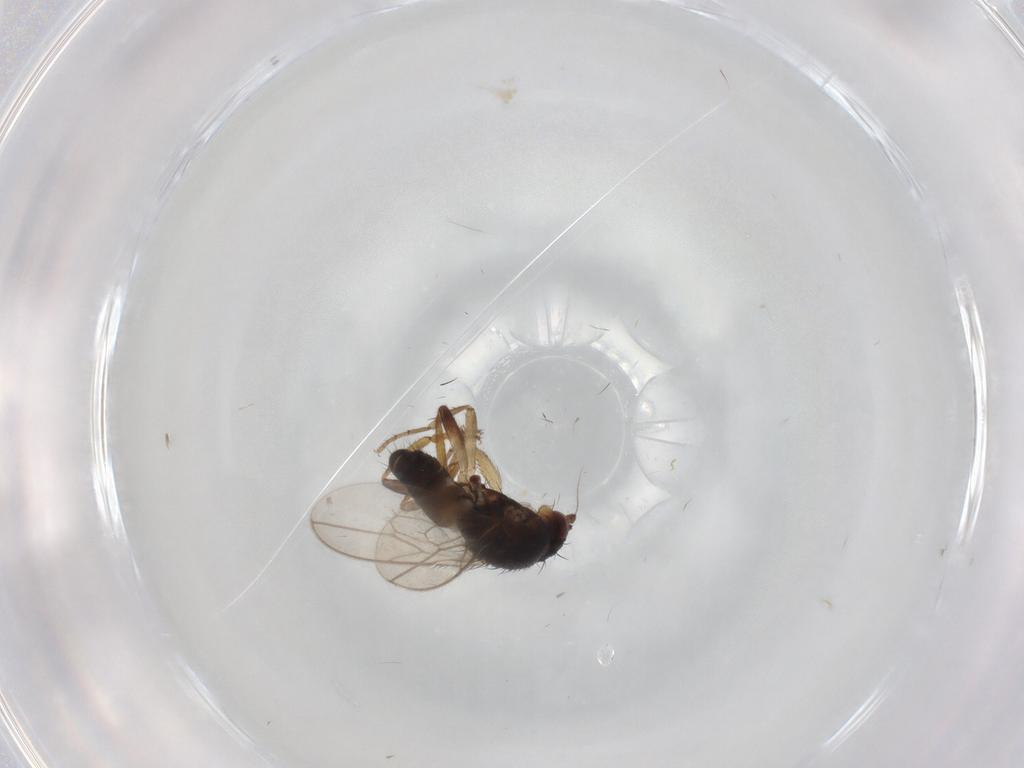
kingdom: Animalia
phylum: Arthropoda
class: Insecta
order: Diptera
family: Sphaeroceridae
